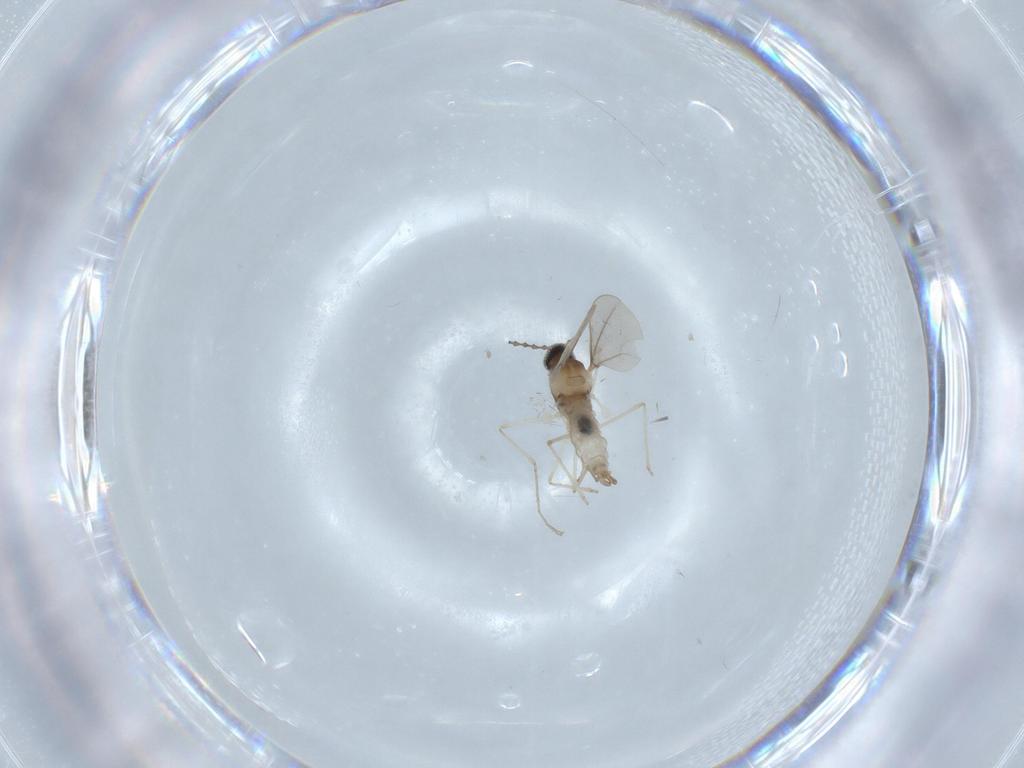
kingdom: Animalia
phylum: Arthropoda
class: Insecta
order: Diptera
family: Cecidomyiidae
